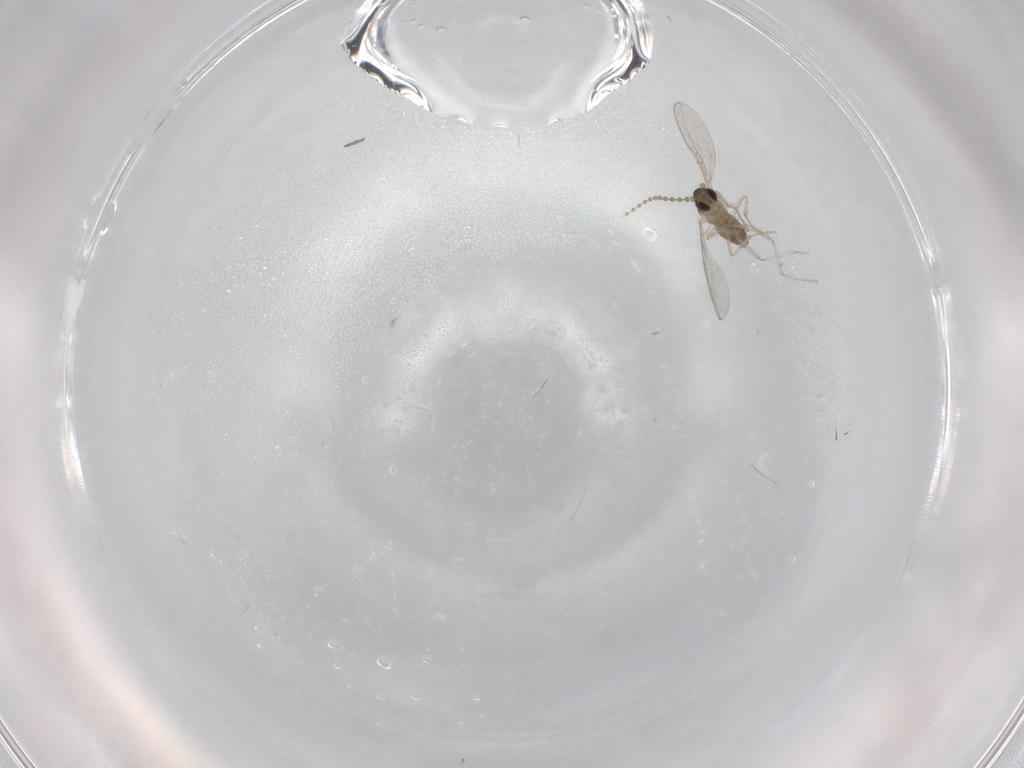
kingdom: Animalia
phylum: Arthropoda
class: Insecta
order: Diptera
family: Cecidomyiidae
